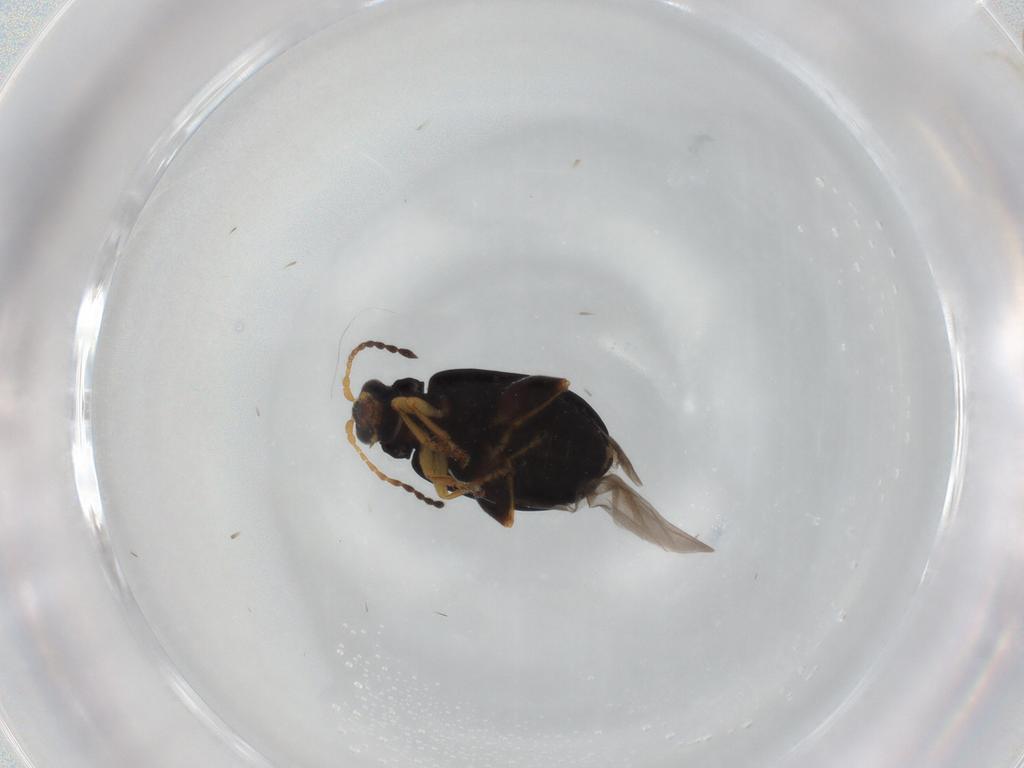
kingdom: Animalia
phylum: Arthropoda
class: Insecta
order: Coleoptera
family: Chrysomelidae
